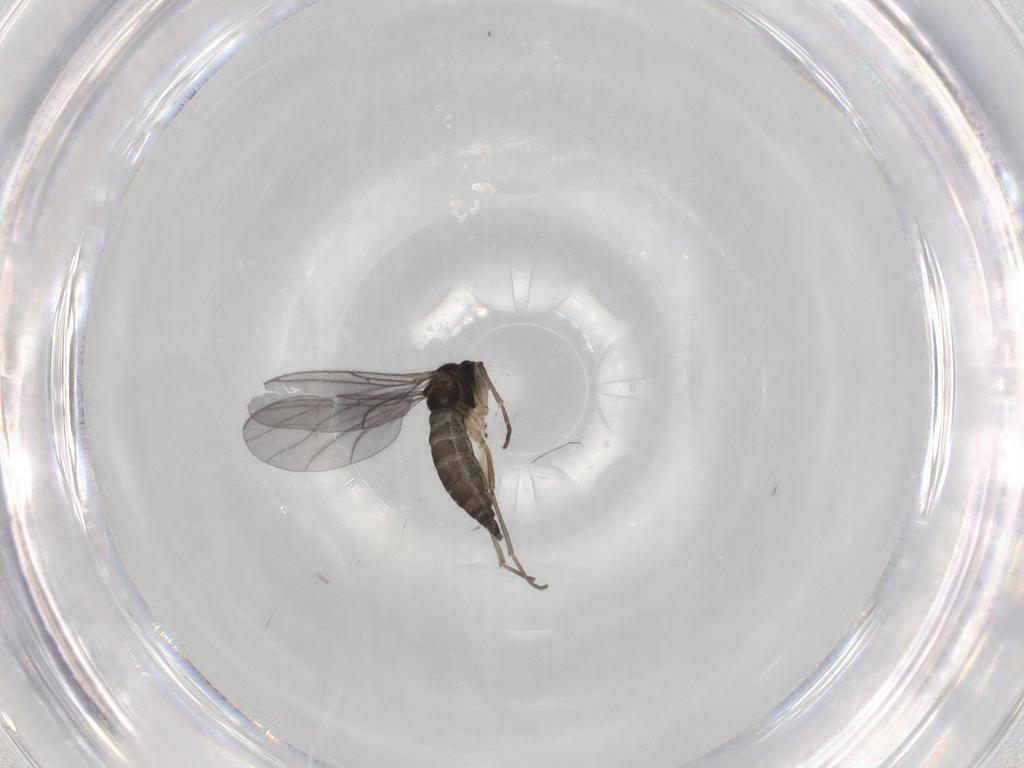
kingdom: Animalia
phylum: Arthropoda
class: Insecta
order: Diptera
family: Sciaridae
